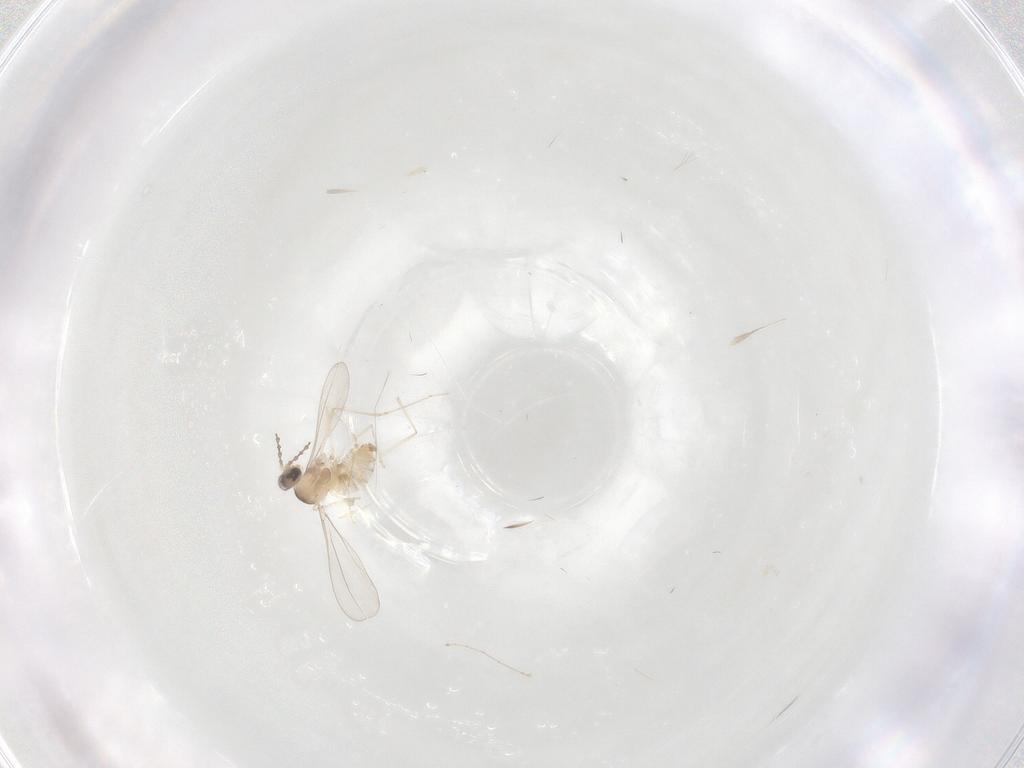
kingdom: Animalia
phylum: Arthropoda
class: Insecta
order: Diptera
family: Cecidomyiidae
